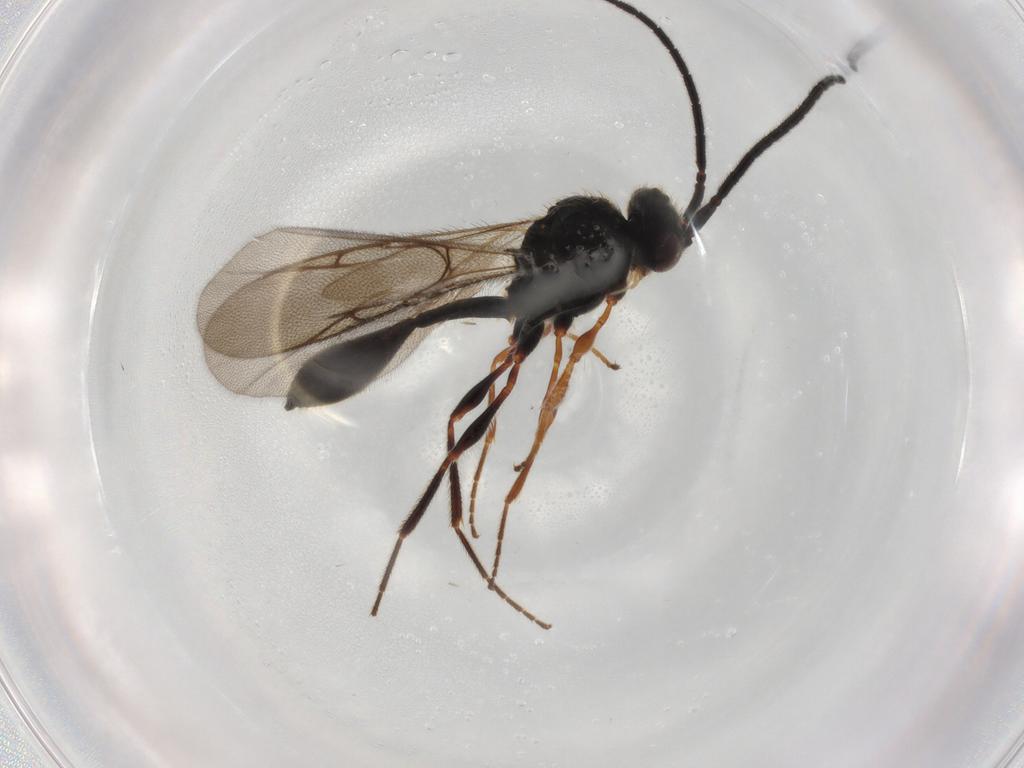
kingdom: Animalia
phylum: Arthropoda
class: Insecta
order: Hymenoptera
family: Diapriidae
